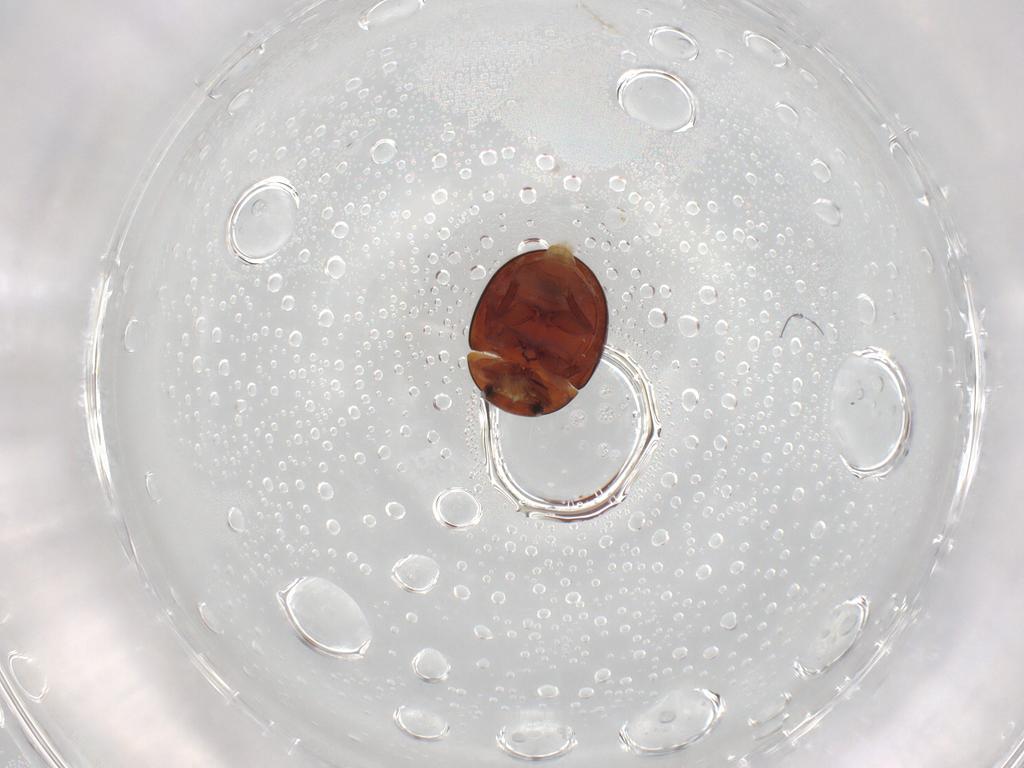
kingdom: Animalia
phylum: Arthropoda
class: Insecta
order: Coleoptera
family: Hydrophilidae
